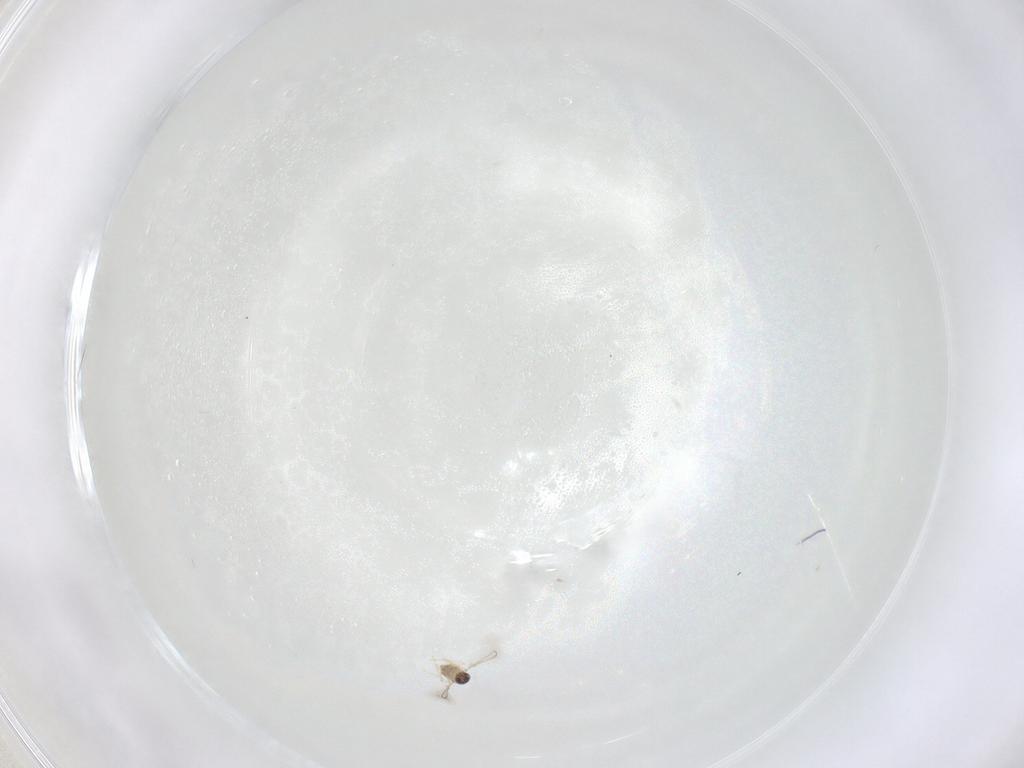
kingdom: Animalia
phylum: Arthropoda
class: Insecta
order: Hymenoptera
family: Mymaridae
